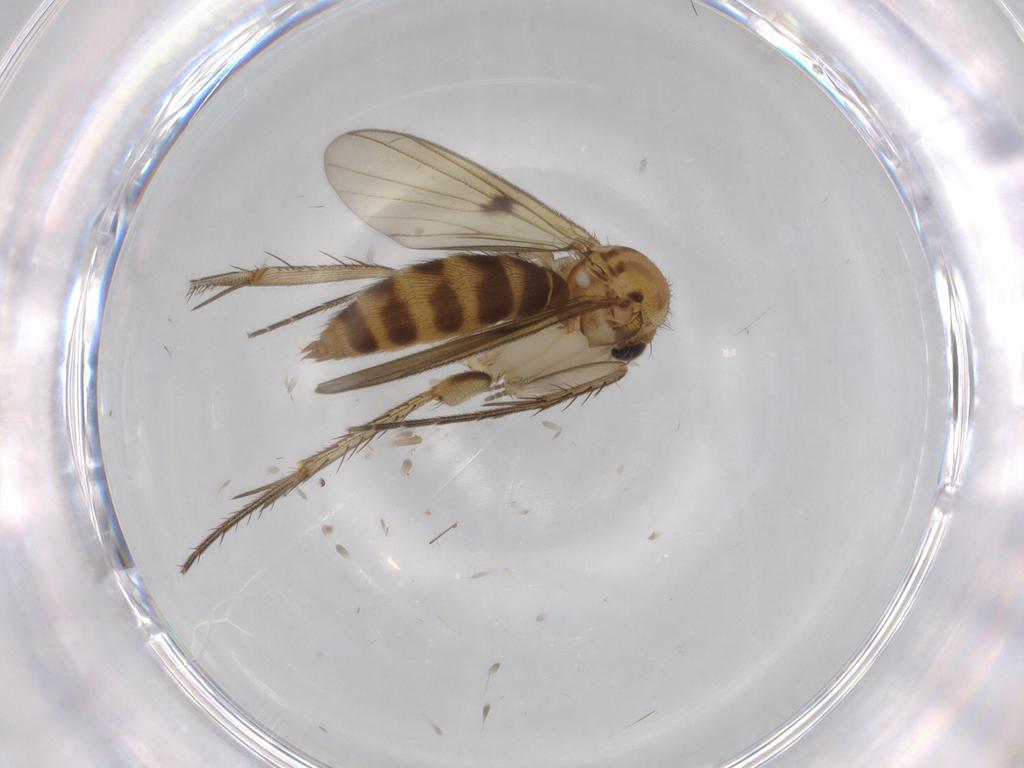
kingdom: Animalia
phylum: Arthropoda
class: Insecta
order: Diptera
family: Mycetophilidae
